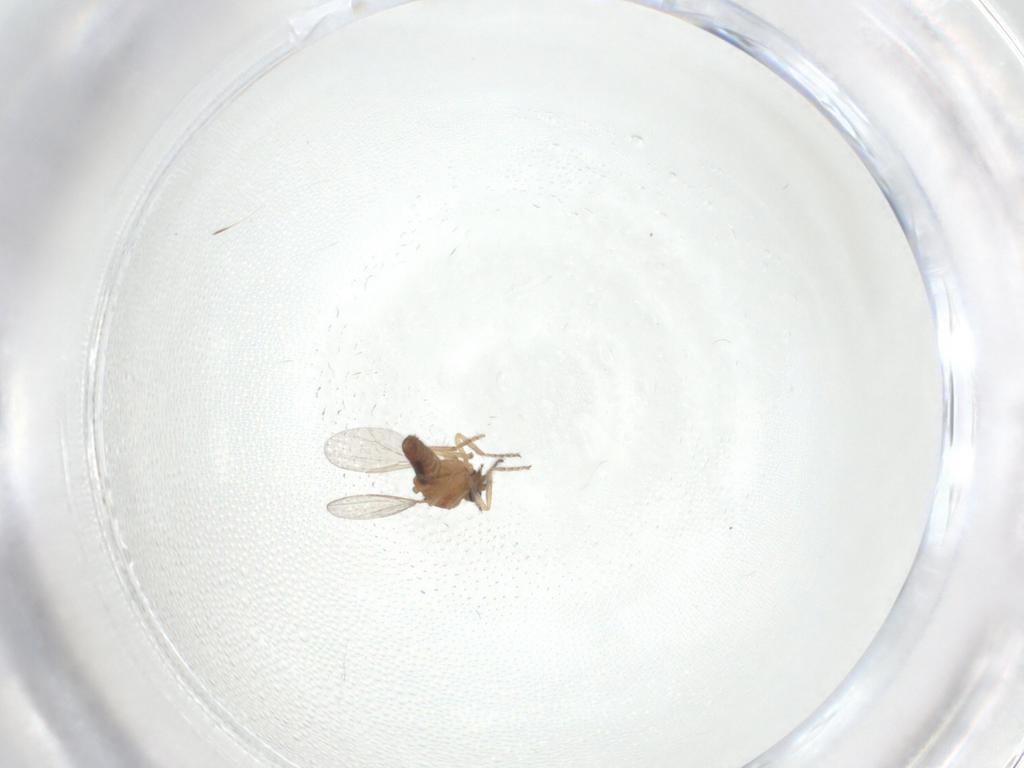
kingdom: Animalia
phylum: Arthropoda
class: Insecta
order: Diptera
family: Ceratopogonidae
